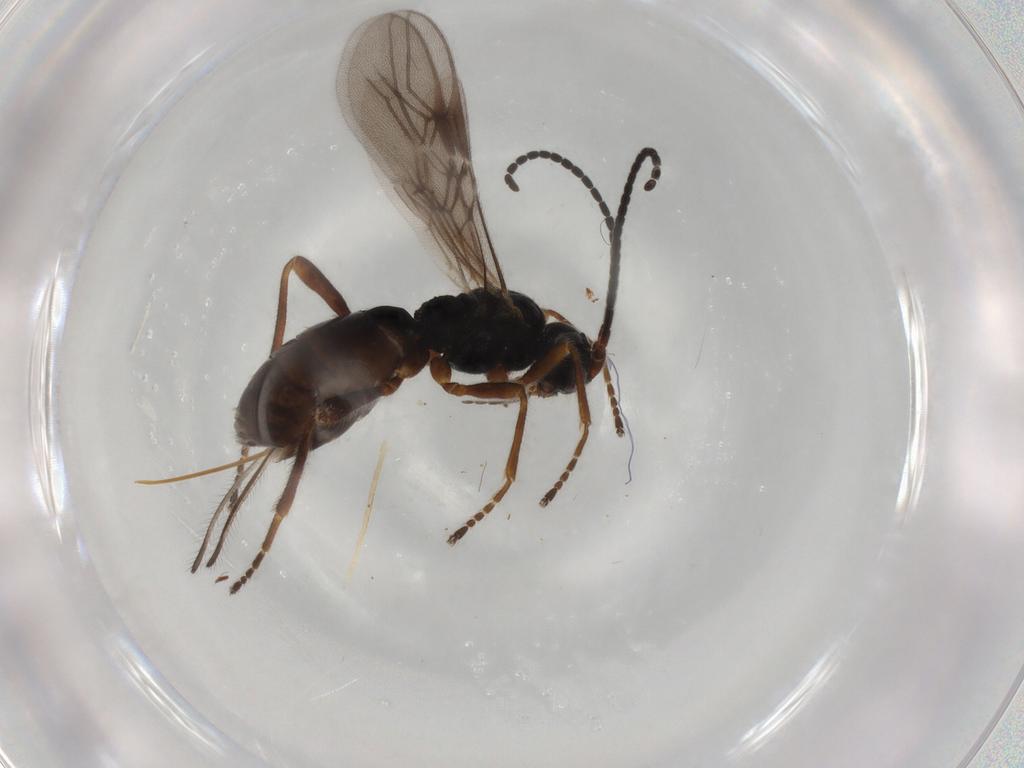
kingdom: Animalia
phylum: Arthropoda
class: Insecta
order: Hymenoptera
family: Braconidae
